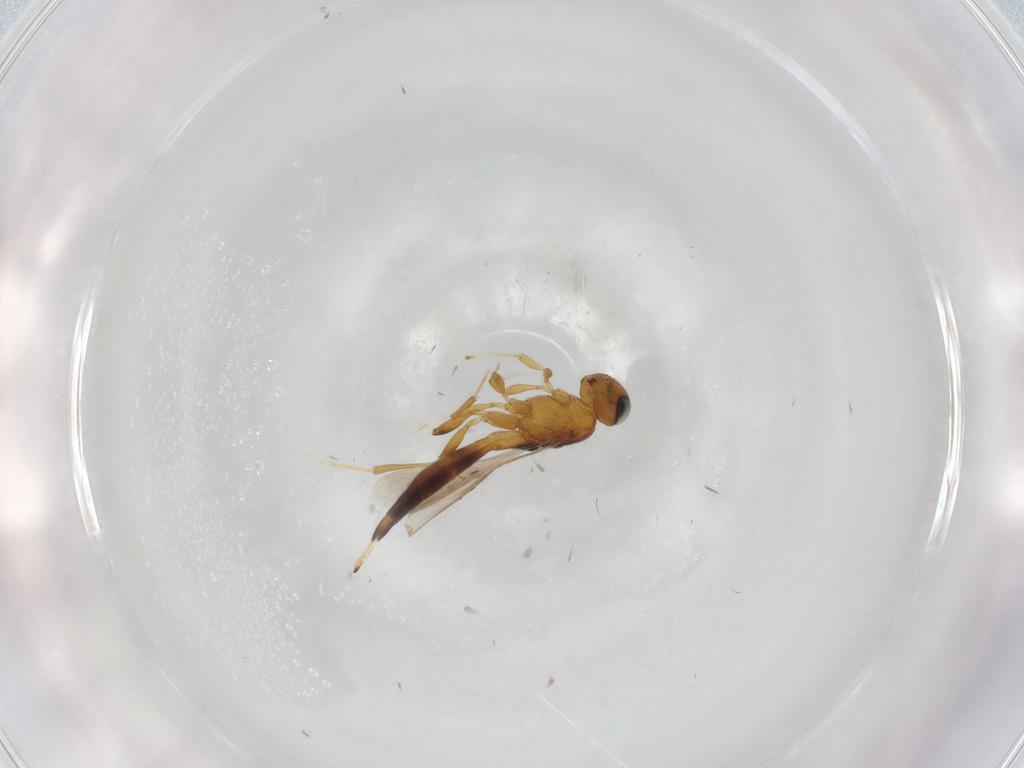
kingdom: Animalia
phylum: Arthropoda
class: Insecta
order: Hymenoptera
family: Scelionidae
